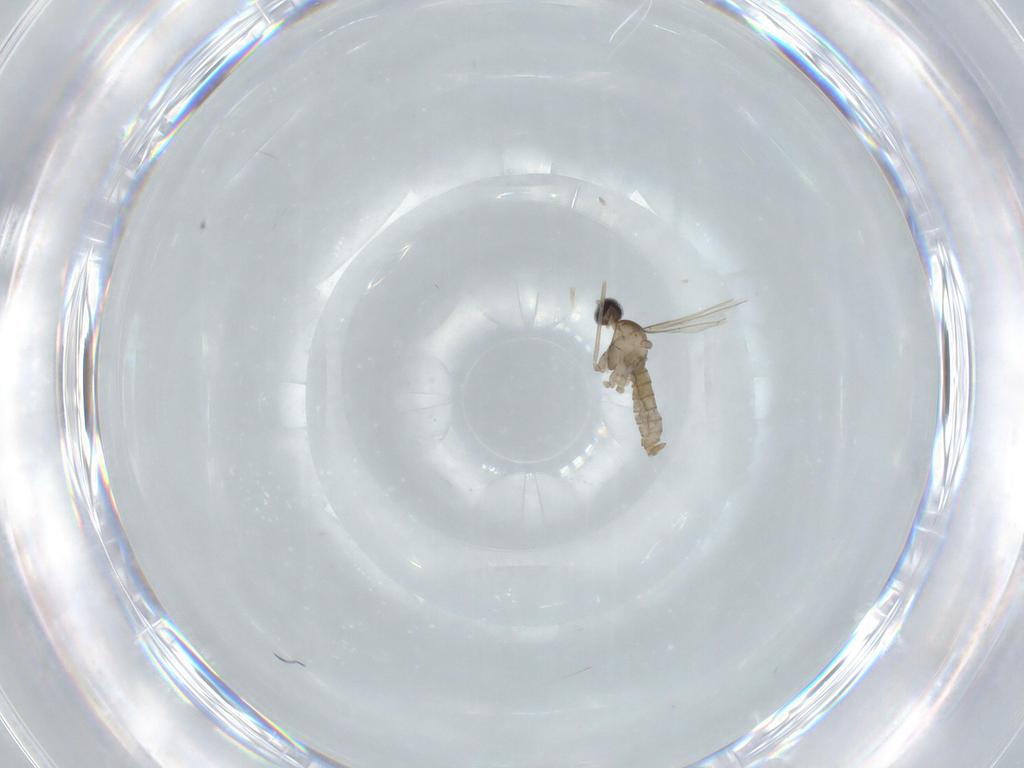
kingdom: Animalia
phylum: Arthropoda
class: Insecta
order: Diptera
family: Cecidomyiidae
